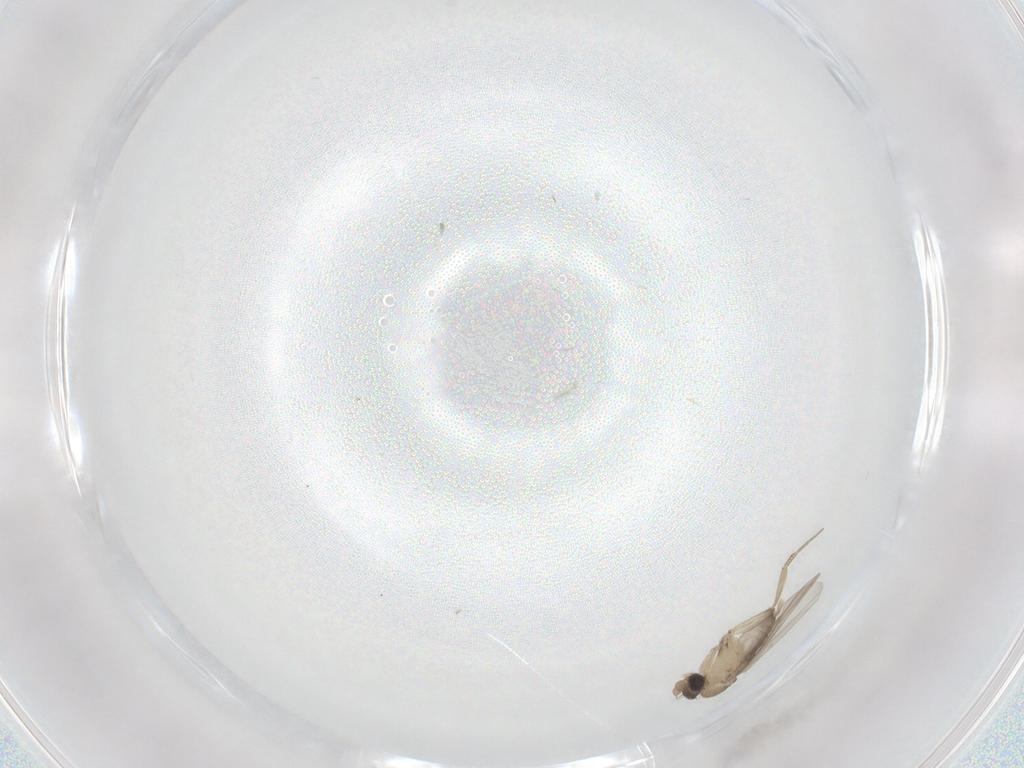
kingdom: Animalia
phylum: Arthropoda
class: Insecta
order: Diptera
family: Phoridae
